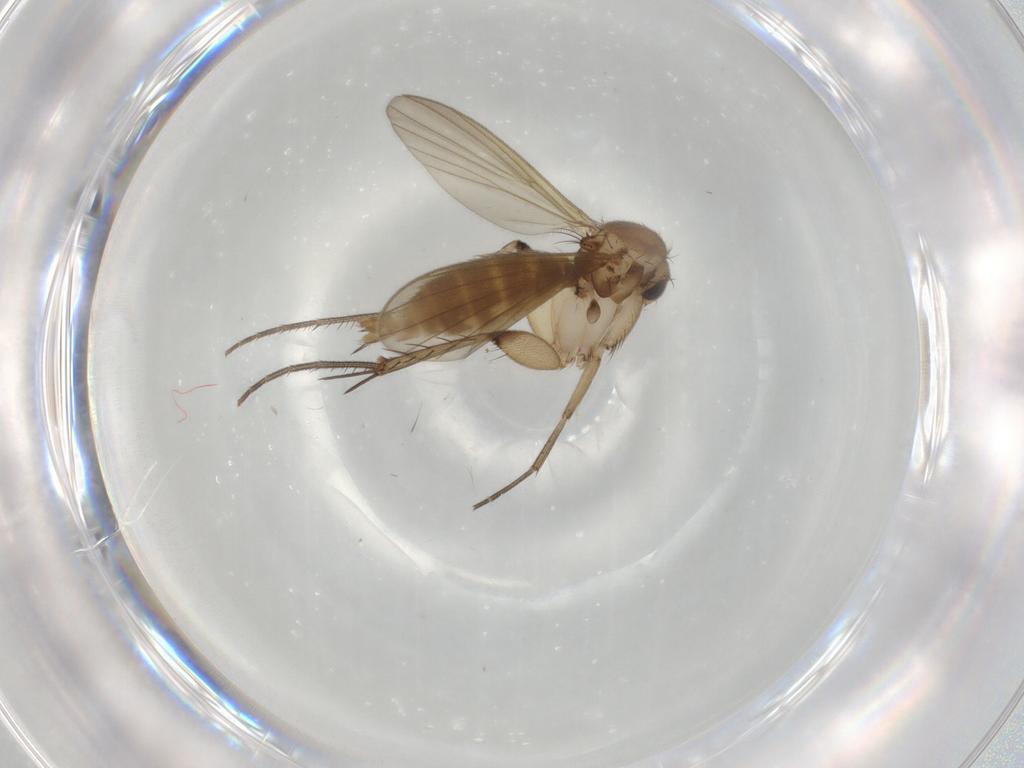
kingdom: Animalia
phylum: Arthropoda
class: Insecta
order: Diptera
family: Mycetophilidae
